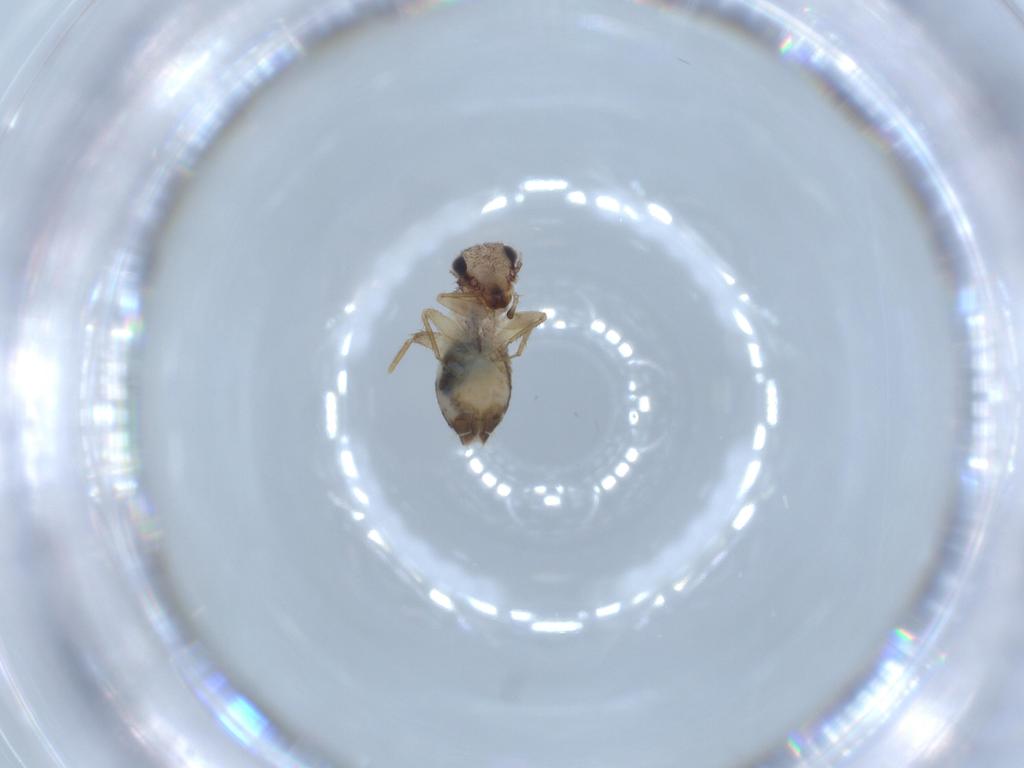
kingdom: Animalia
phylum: Arthropoda
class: Insecta
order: Psocodea
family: Lepidopsocidae
